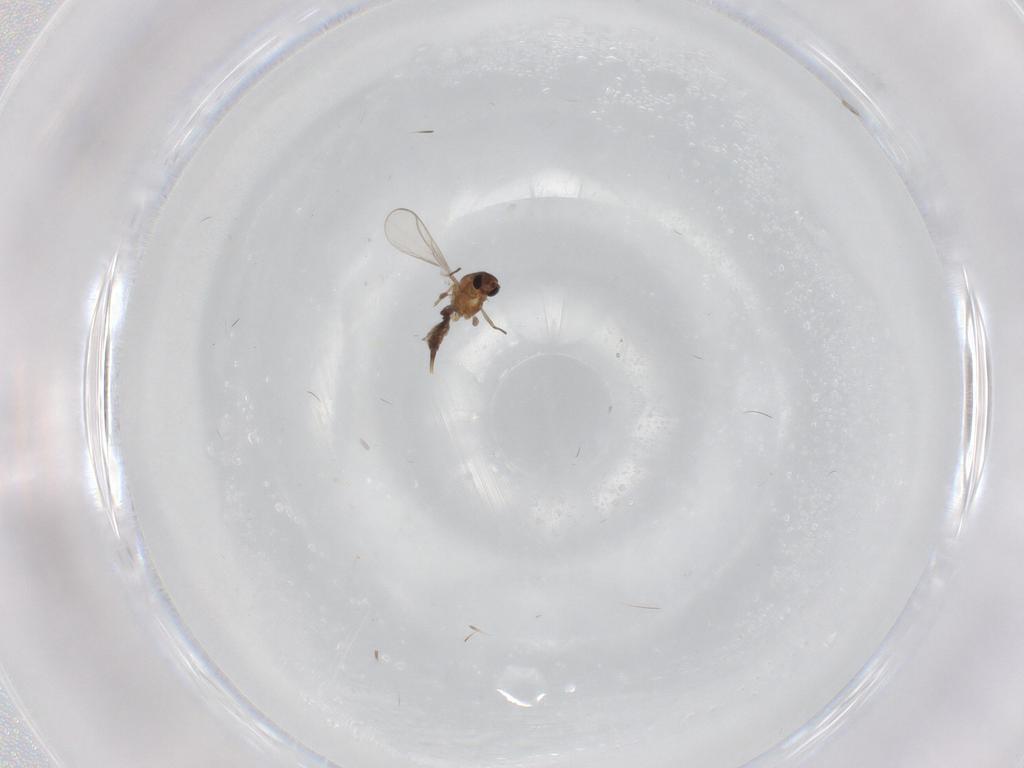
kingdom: Animalia
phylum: Arthropoda
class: Insecta
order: Diptera
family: Chironomidae
